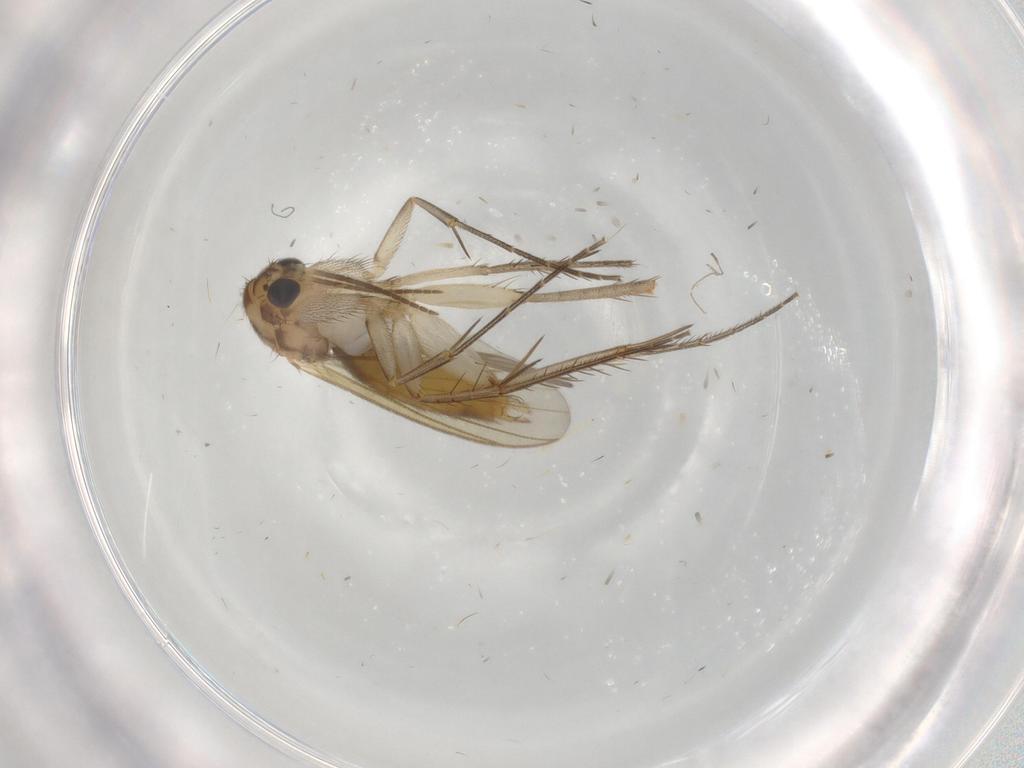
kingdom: Animalia
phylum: Arthropoda
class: Insecta
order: Diptera
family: Mycetophilidae
